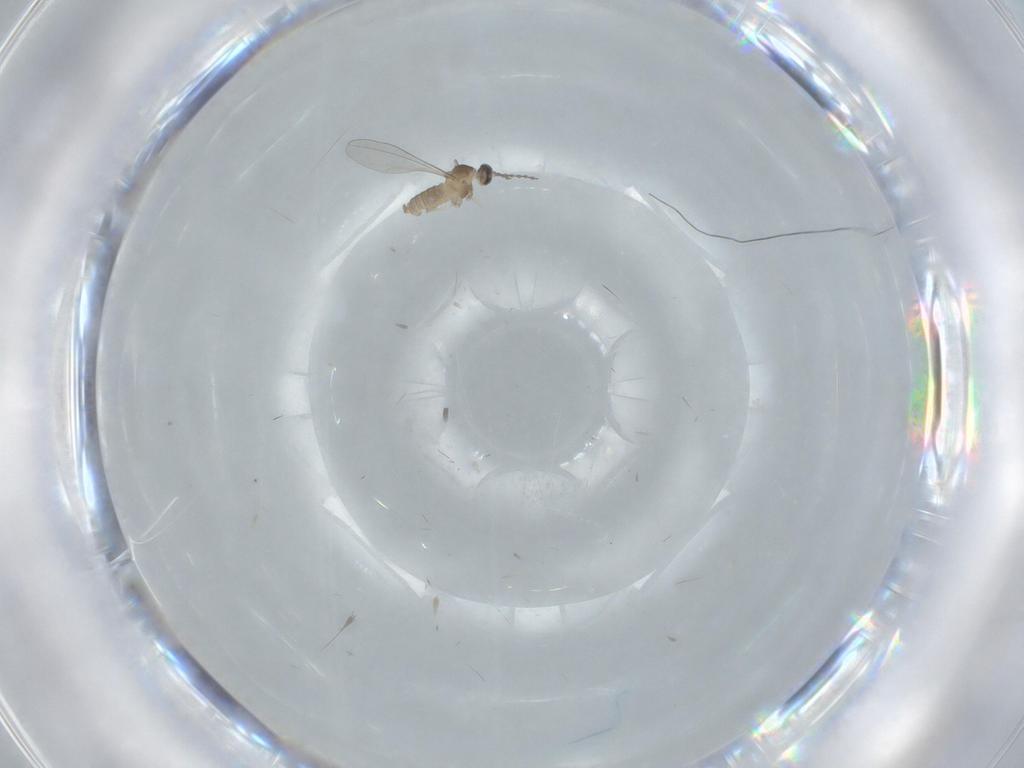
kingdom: Animalia
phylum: Arthropoda
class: Insecta
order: Diptera
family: Cecidomyiidae
